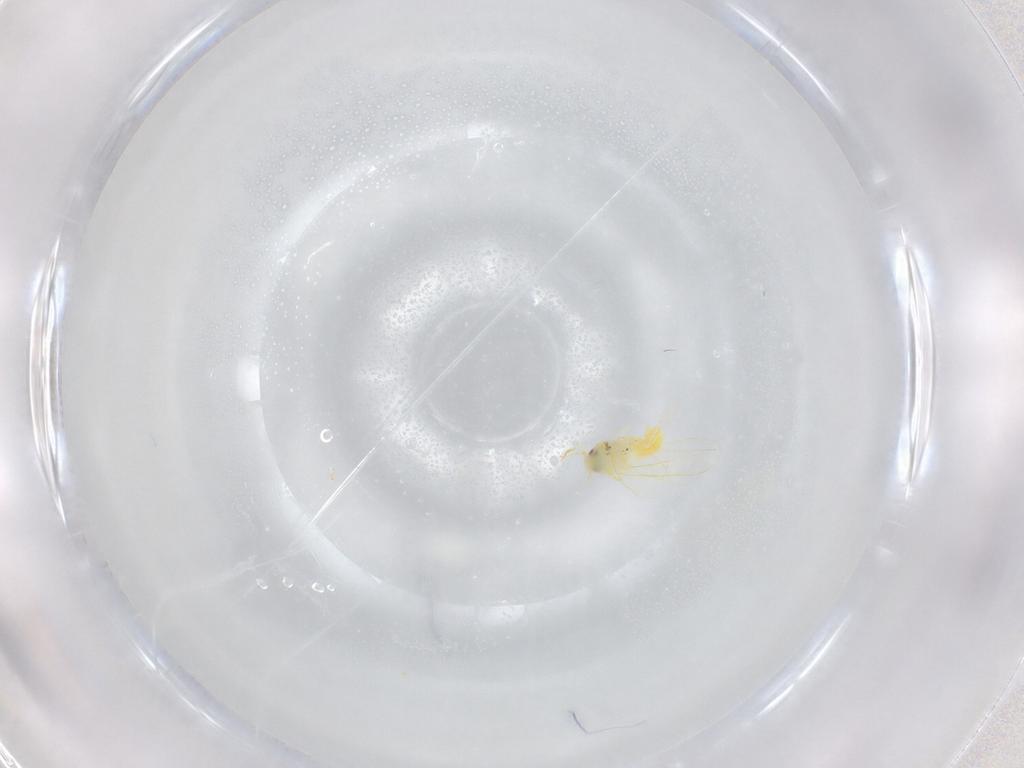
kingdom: Animalia
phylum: Arthropoda
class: Insecta
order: Hemiptera
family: Aleyrodidae
